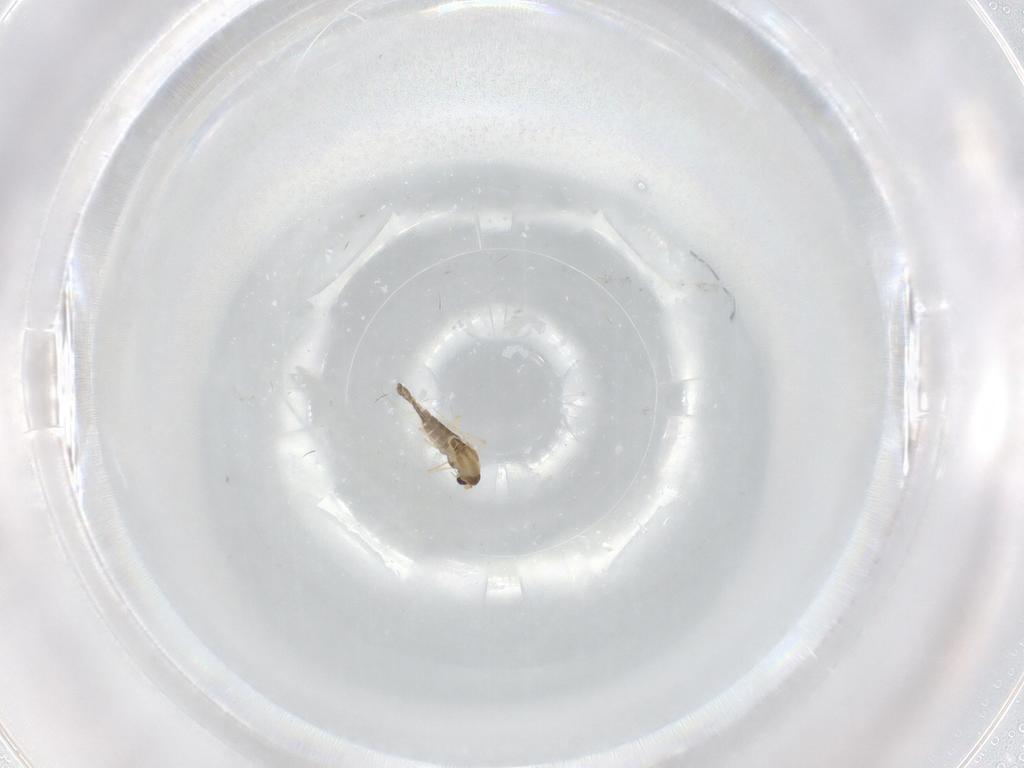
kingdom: Animalia
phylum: Arthropoda
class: Insecta
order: Diptera
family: Chironomidae
